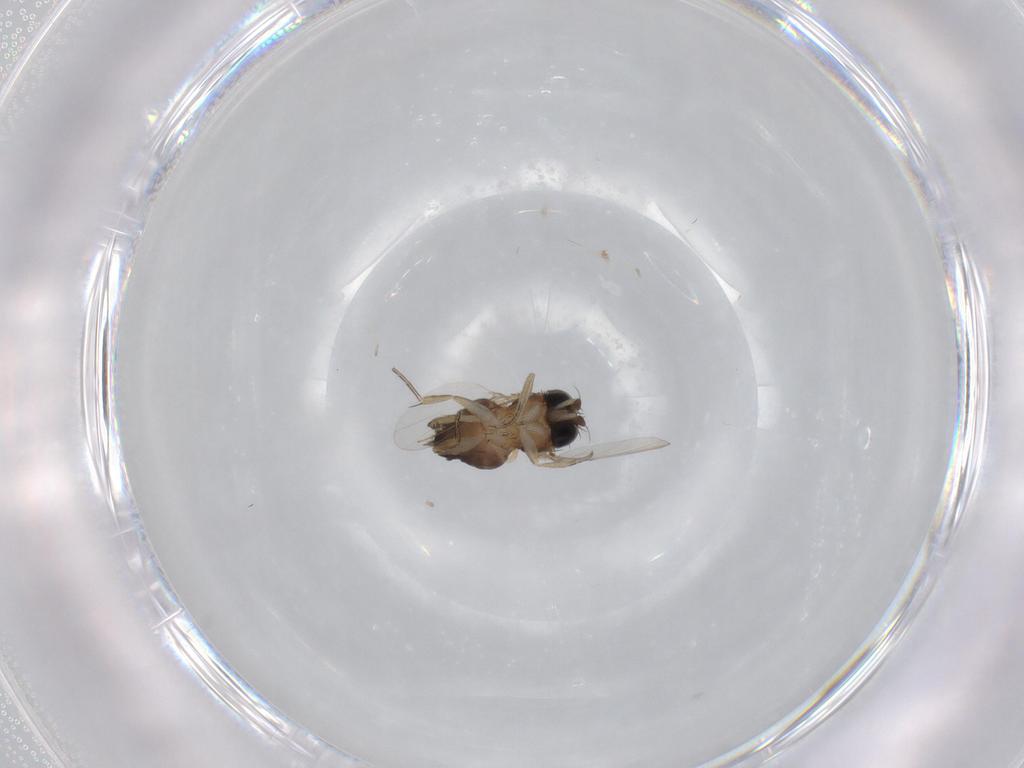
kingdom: Animalia
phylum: Arthropoda
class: Insecta
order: Diptera
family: Phoridae
